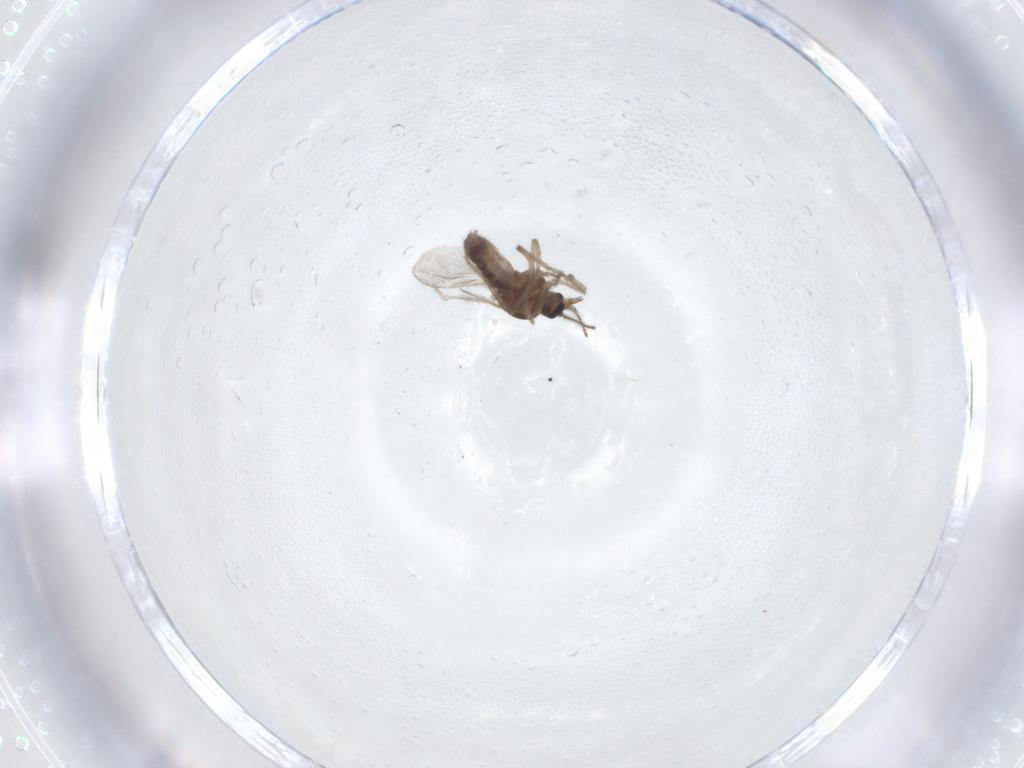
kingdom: Animalia
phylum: Arthropoda
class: Insecta
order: Diptera
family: Ceratopogonidae
